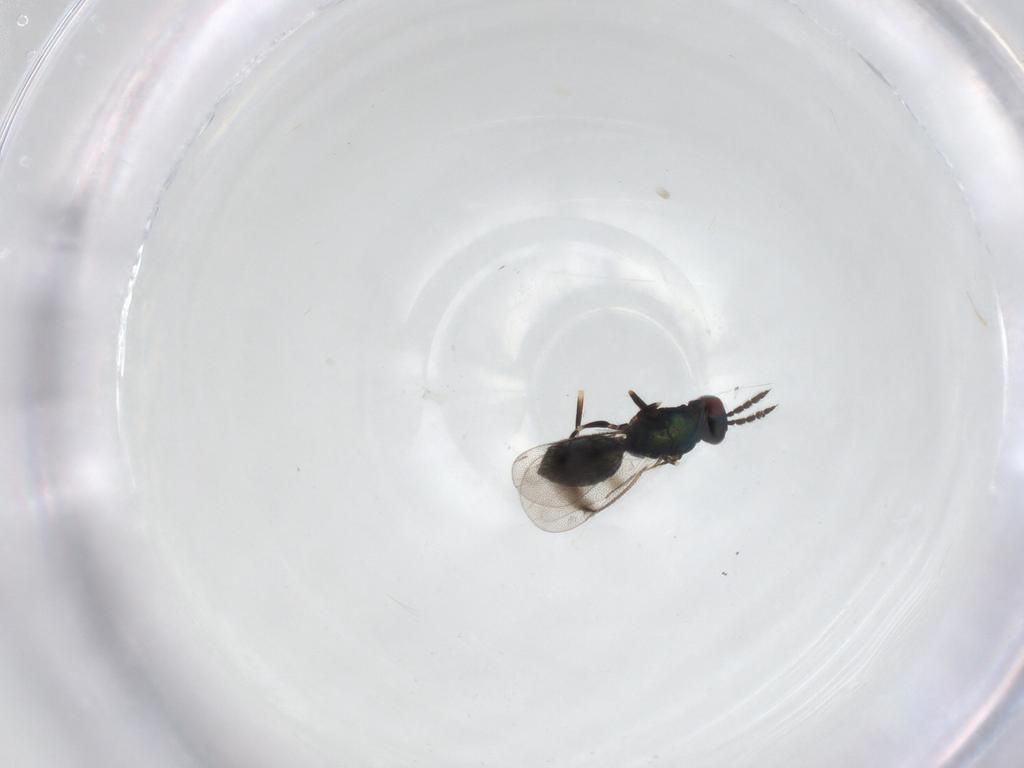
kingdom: Animalia
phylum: Arthropoda
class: Insecta
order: Hymenoptera
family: Eulophidae
